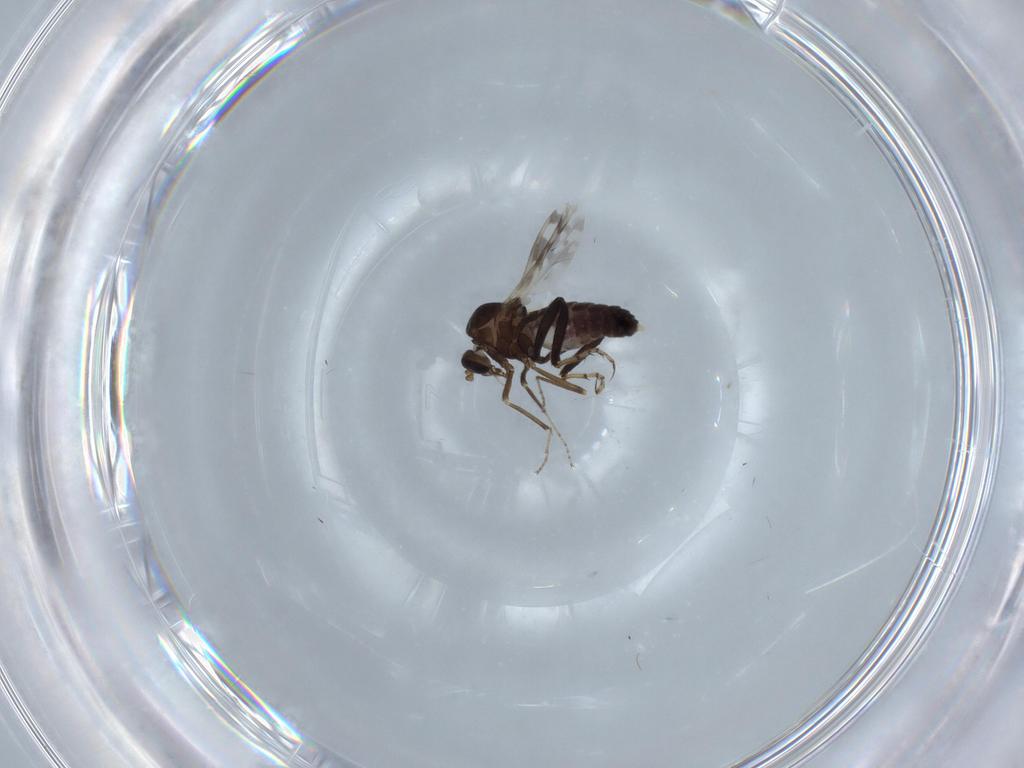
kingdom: Animalia
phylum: Arthropoda
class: Insecta
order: Diptera
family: Ceratopogonidae
